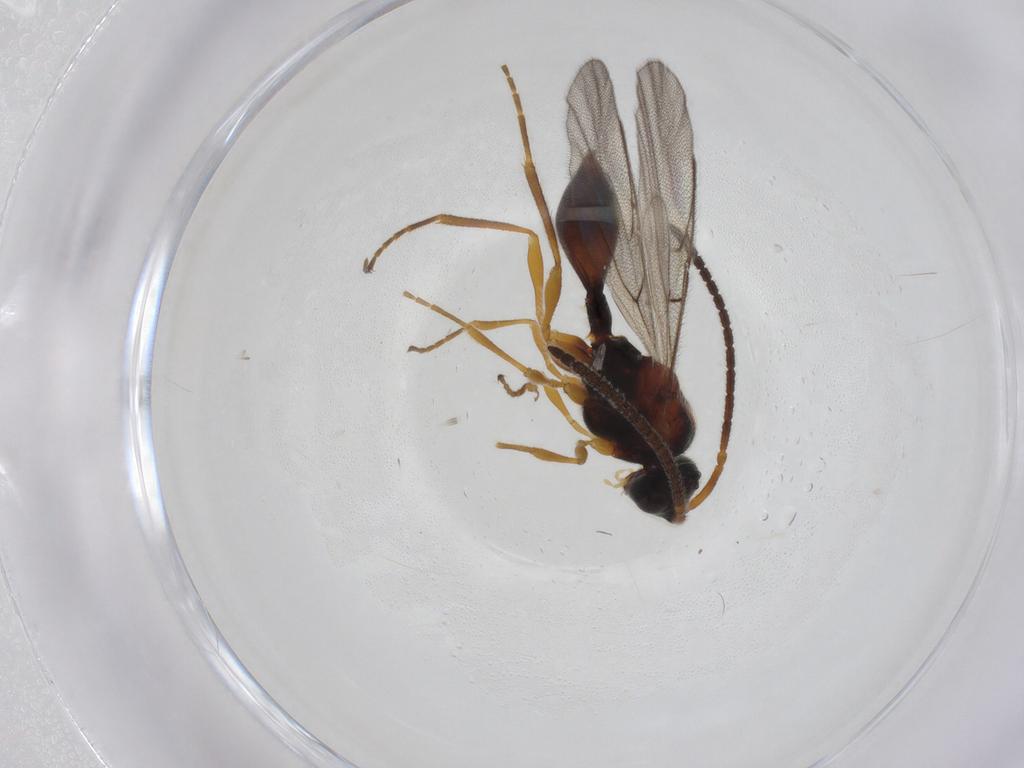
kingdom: Animalia
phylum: Arthropoda
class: Insecta
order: Hymenoptera
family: Diapriidae
